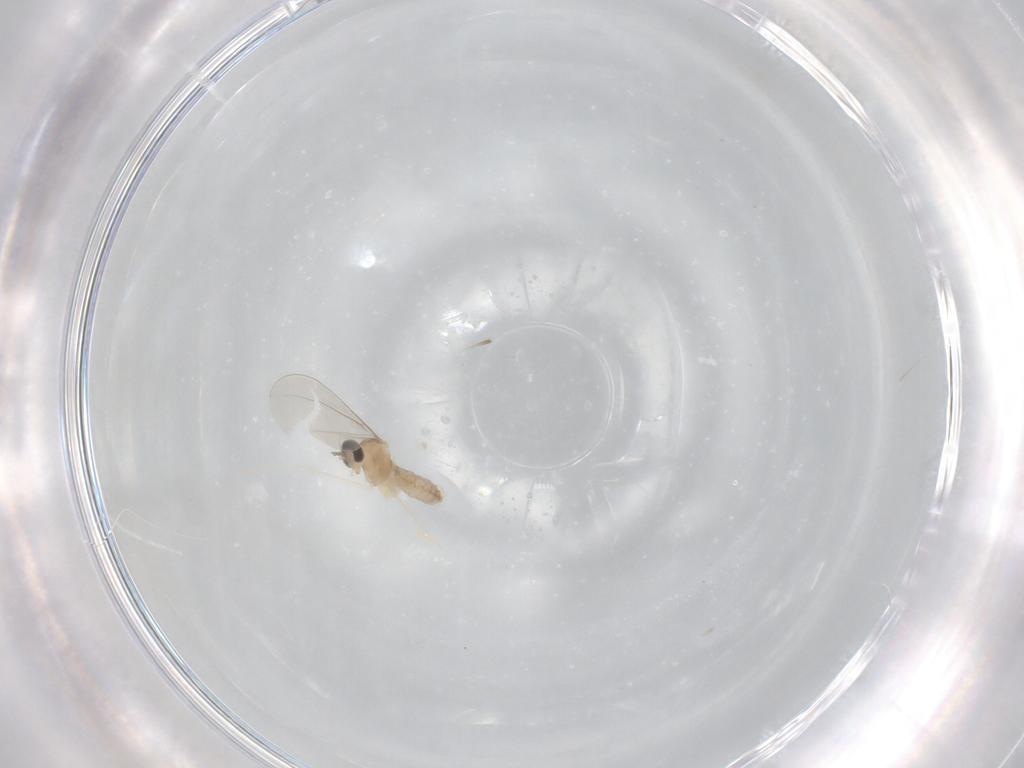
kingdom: Animalia
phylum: Arthropoda
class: Insecta
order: Diptera
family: Cecidomyiidae
